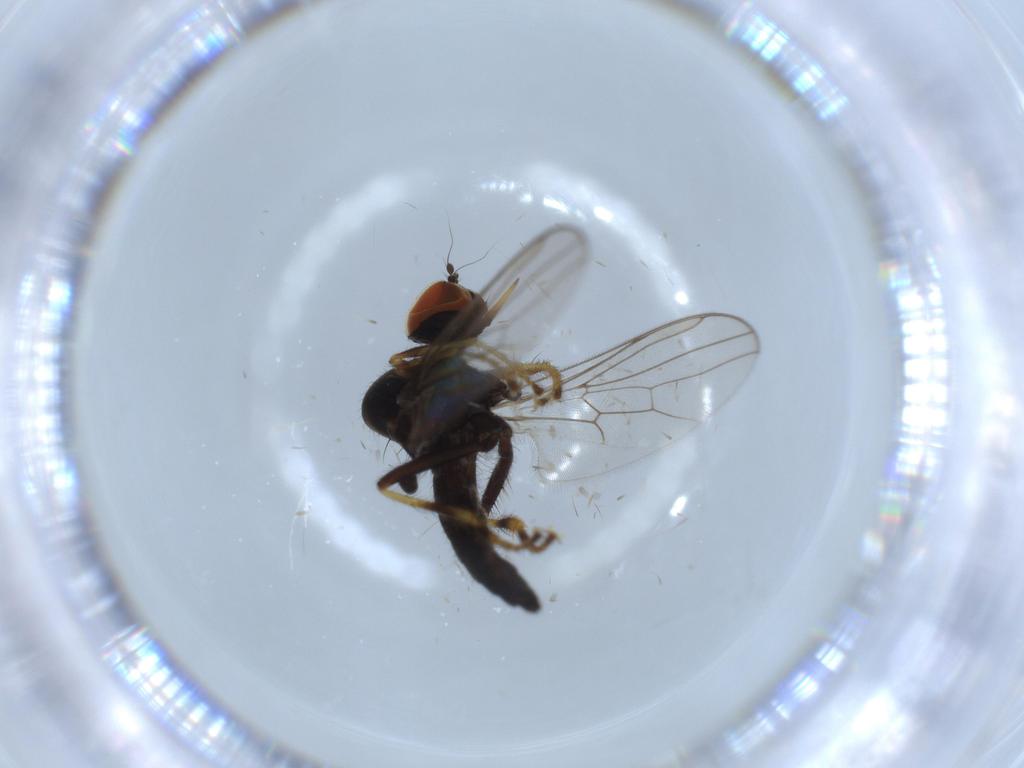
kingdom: Animalia
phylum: Arthropoda
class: Insecta
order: Diptera
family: Hybotidae
